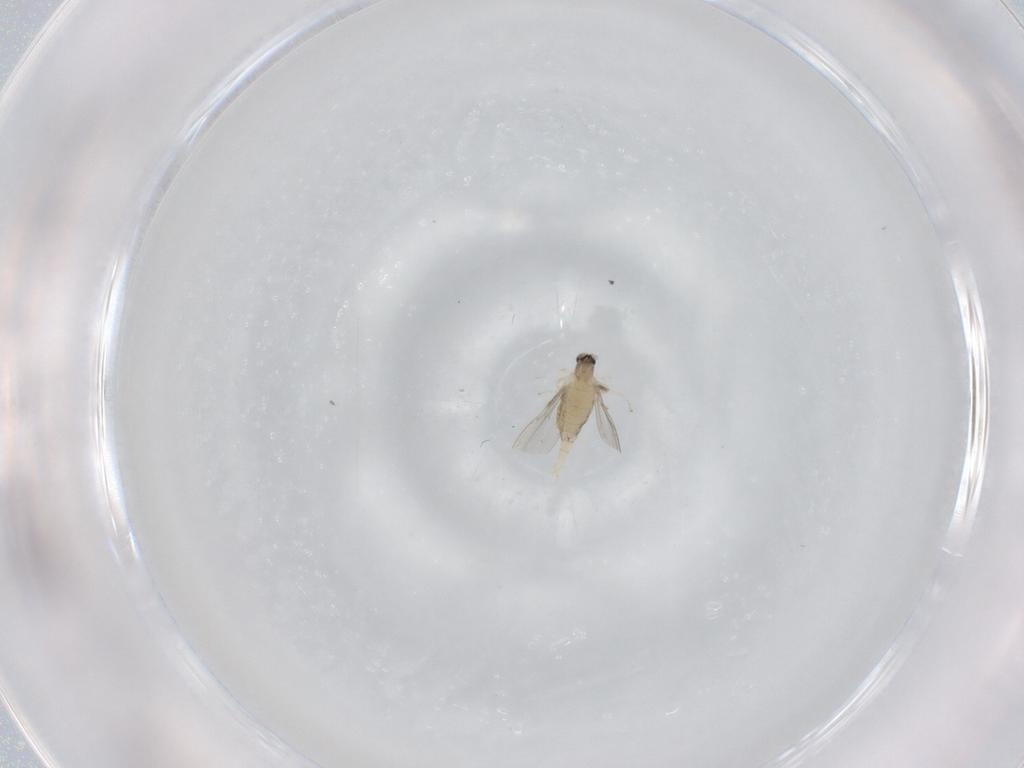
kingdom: Animalia
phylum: Arthropoda
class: Insecta
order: Diptera
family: Cecidomyiidae
